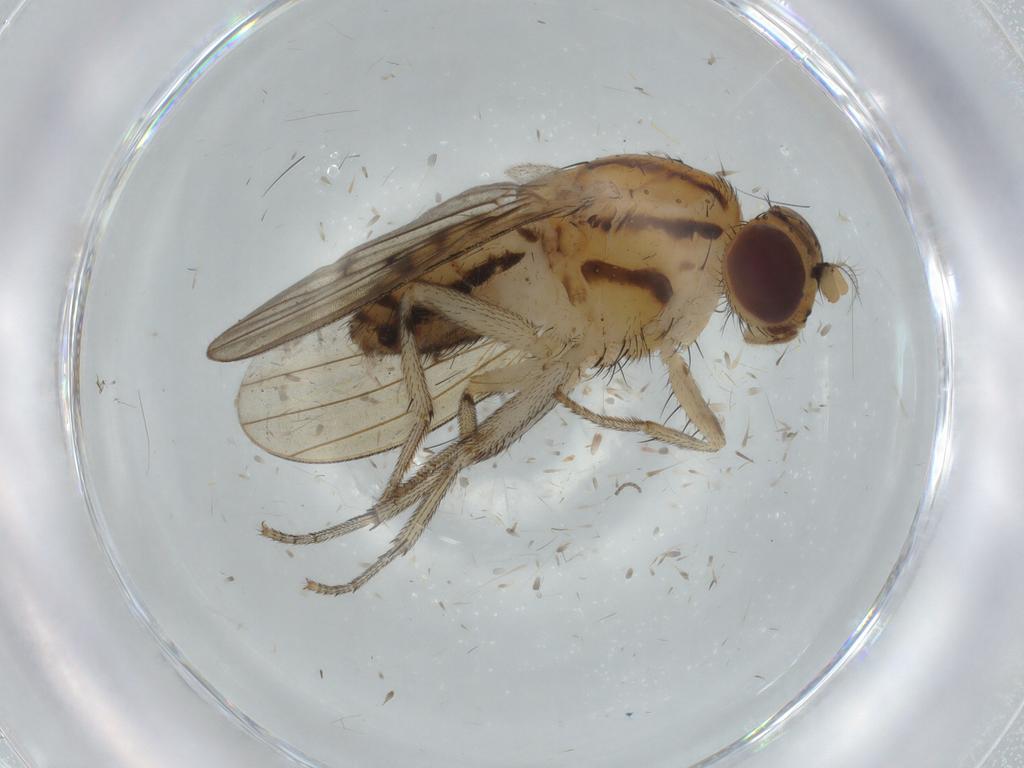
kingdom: Animalia
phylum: Arthropoda
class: Insecta
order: Diptera
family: Lauxaniidae
